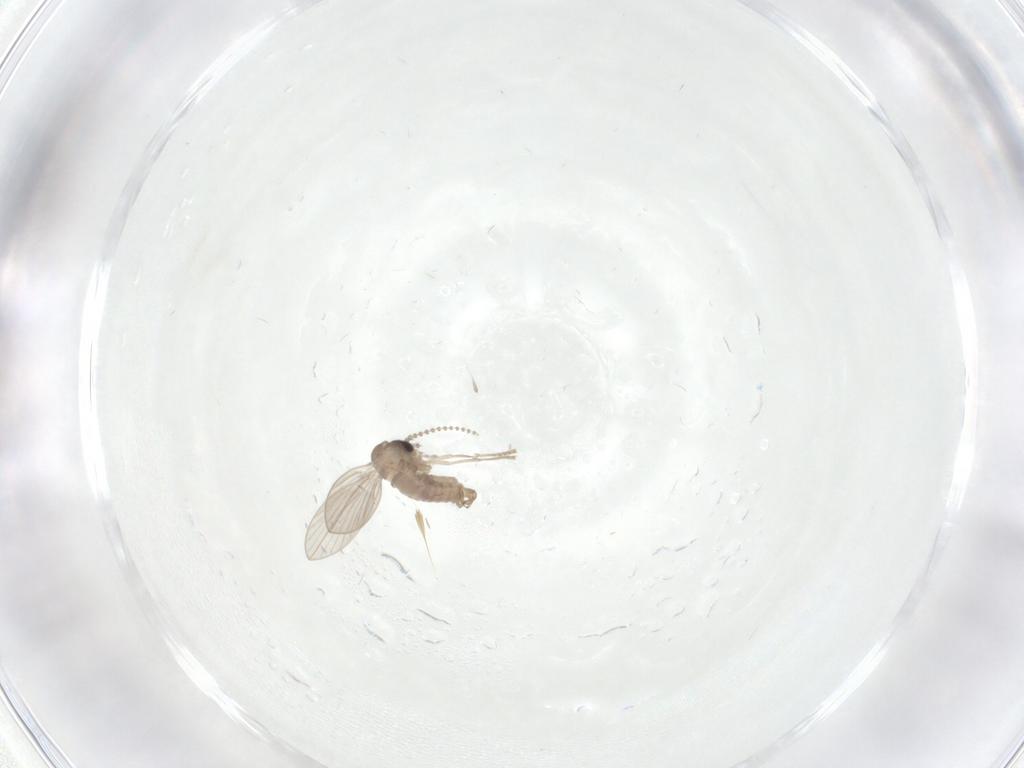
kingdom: Animalia
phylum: Arthropoda
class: Insecta
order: Diptera
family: Psychodidae
